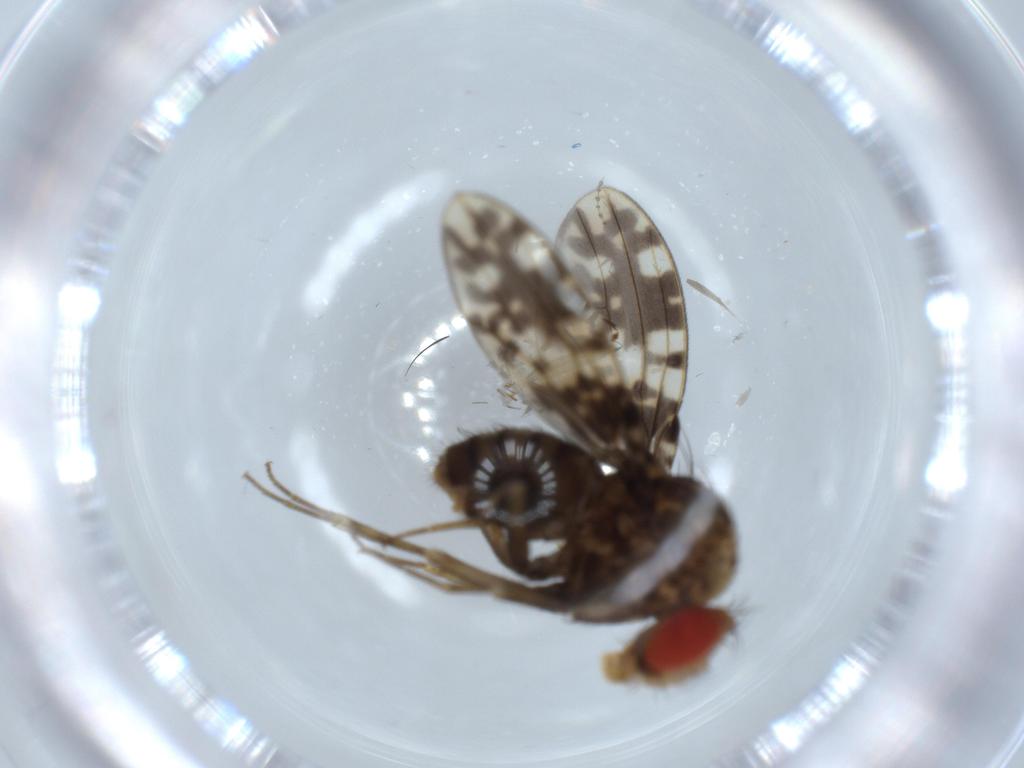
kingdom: Animalia
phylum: Arthropoda
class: Insecta
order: Diptera
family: Drosophilidae
